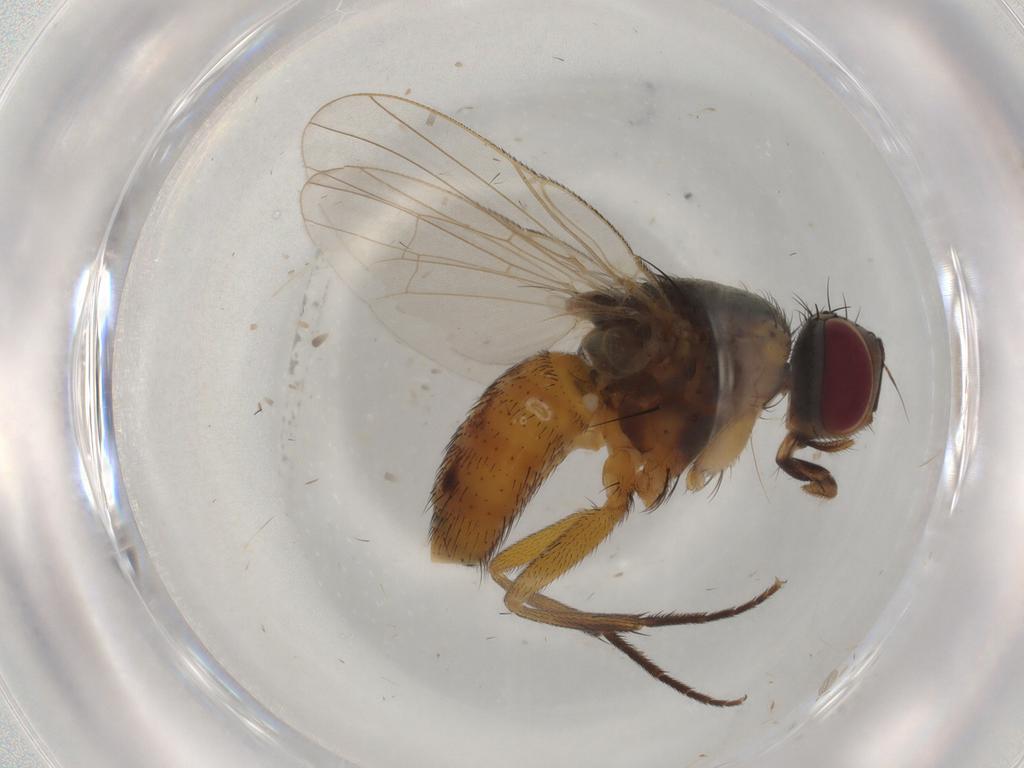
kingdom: Animalia
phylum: Arthropoda
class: Insecta
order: Diptera
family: Muscidae
